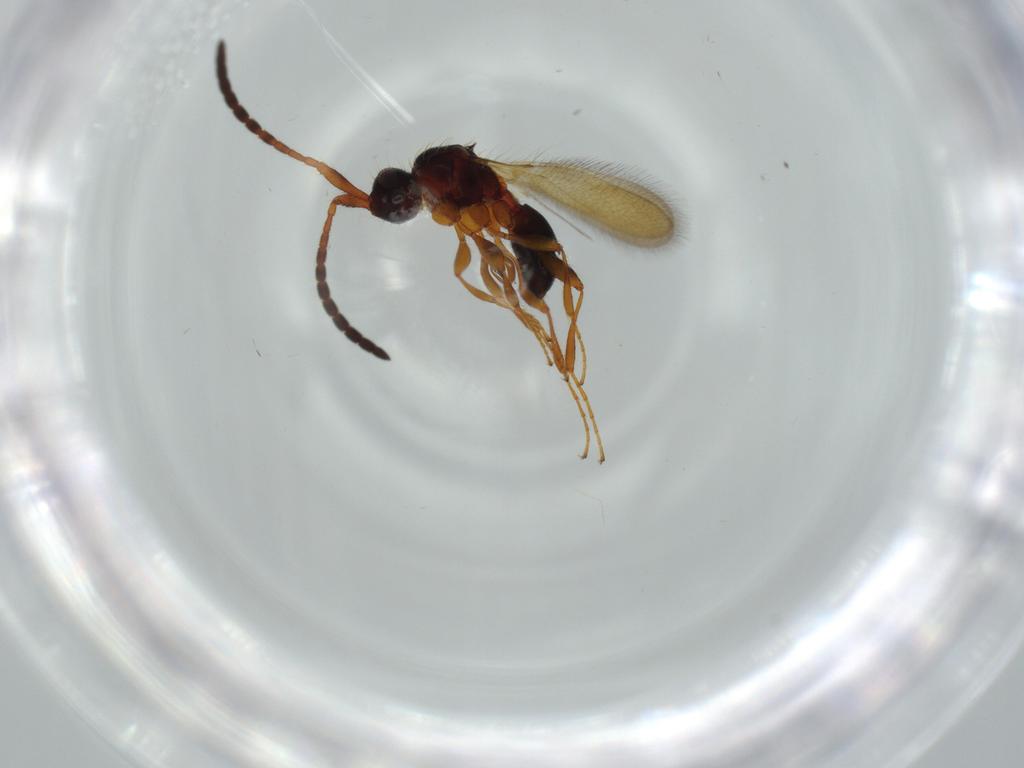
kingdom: Animalia
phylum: Arthropoda
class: Insecta
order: Hymenoptera
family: Diapriidae
